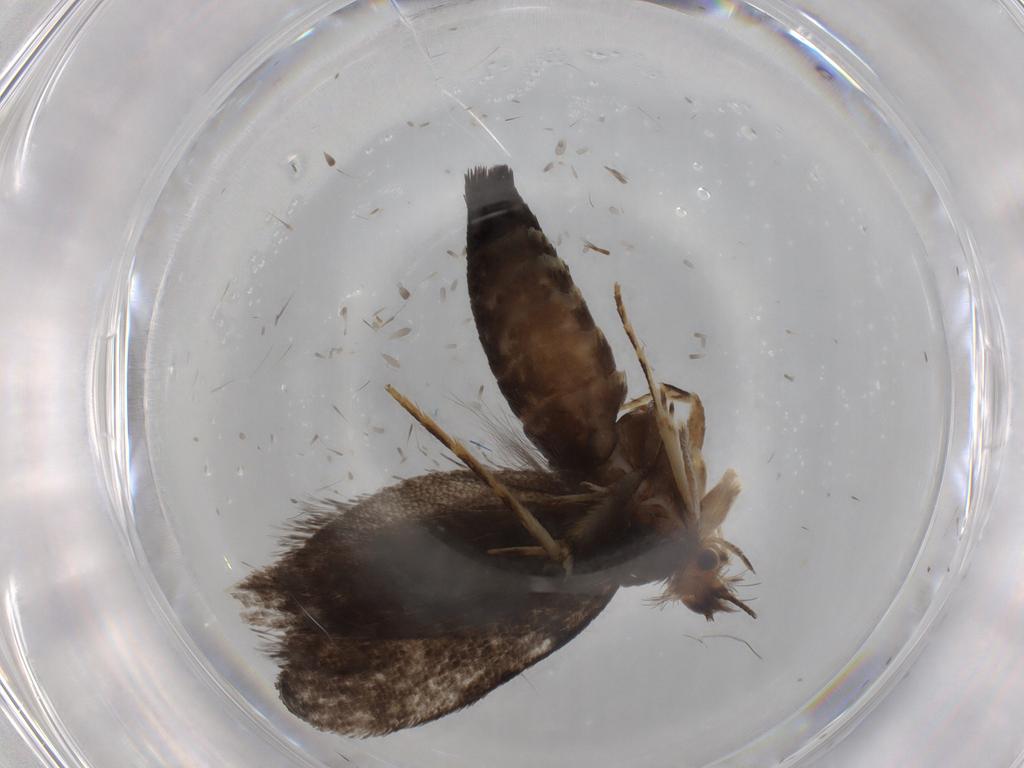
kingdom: Animalia
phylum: Arthropoda
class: Insecta
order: Lepidoptera
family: Tineidae
